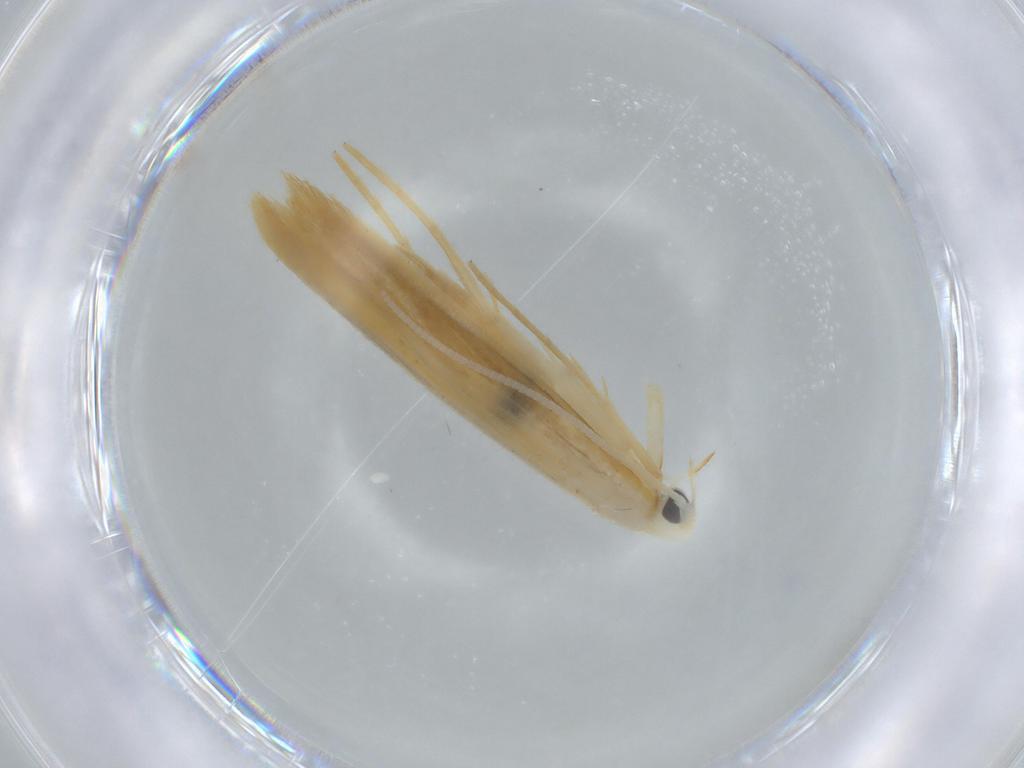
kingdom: Animalia
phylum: Arthropoda
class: Insecta
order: Lepidoptera
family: Lyonetiidae
